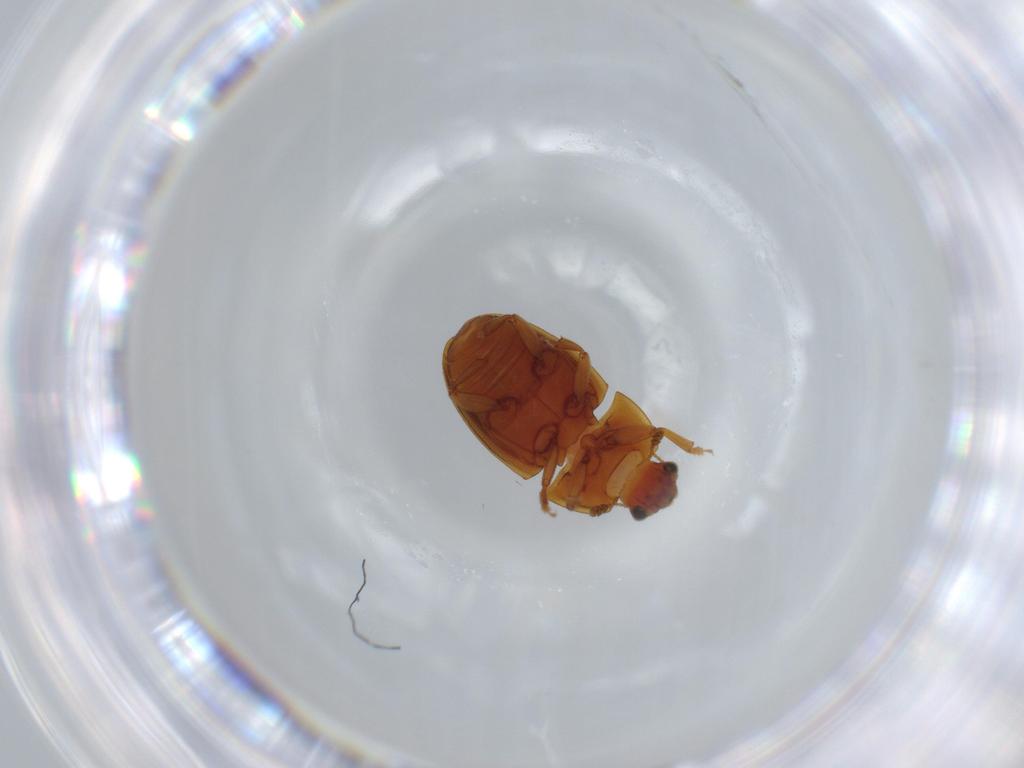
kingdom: Animalia
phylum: Arthropoda
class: Insecta
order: Coleoptera
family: Nitidulidae
